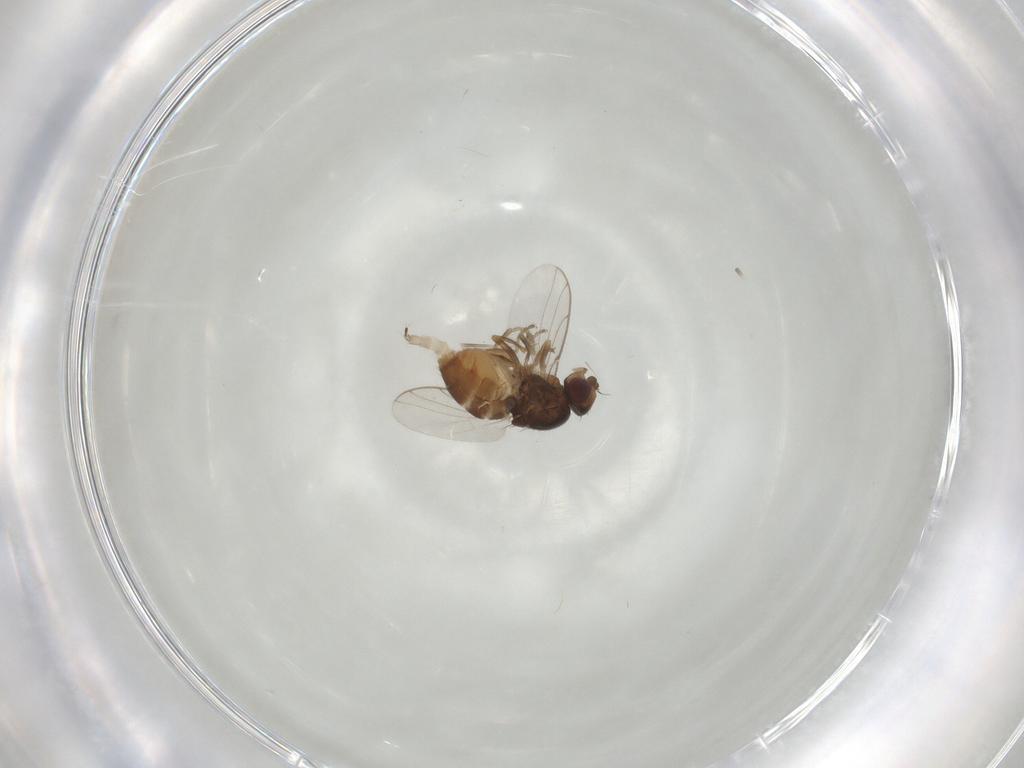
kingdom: Animalia
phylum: Arthropoda
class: Insecta
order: Diptera
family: Chloropidae
